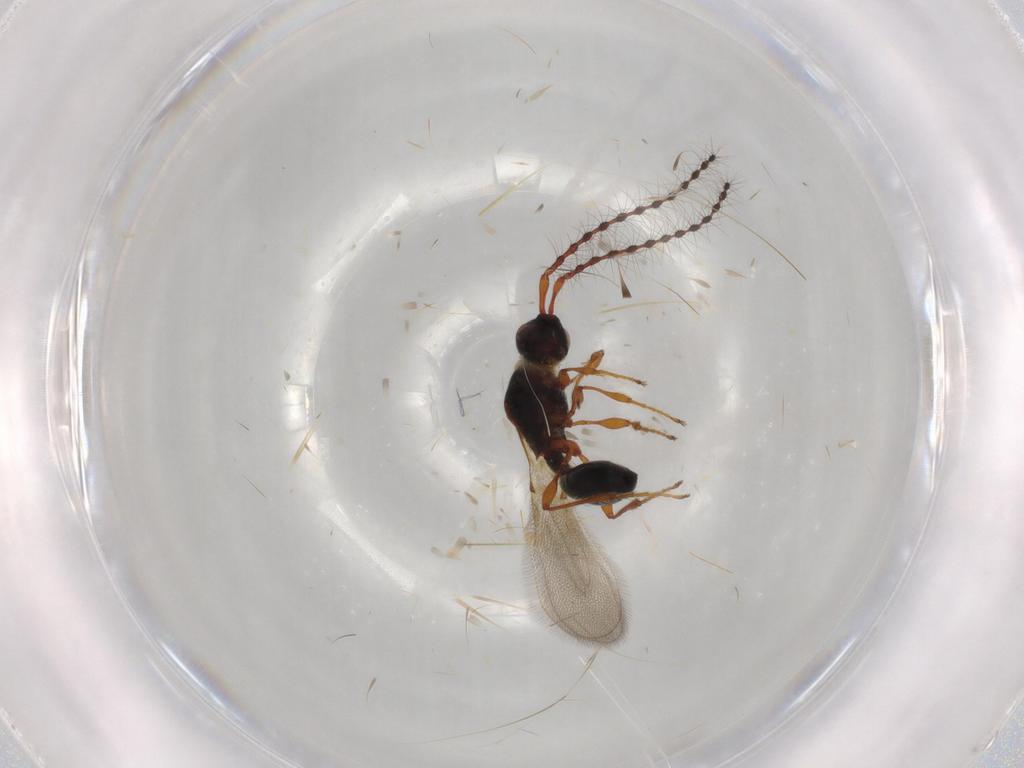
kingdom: Animalia
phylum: Arthropoda
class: Insecta
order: Hymenoptera
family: Diapriidae
